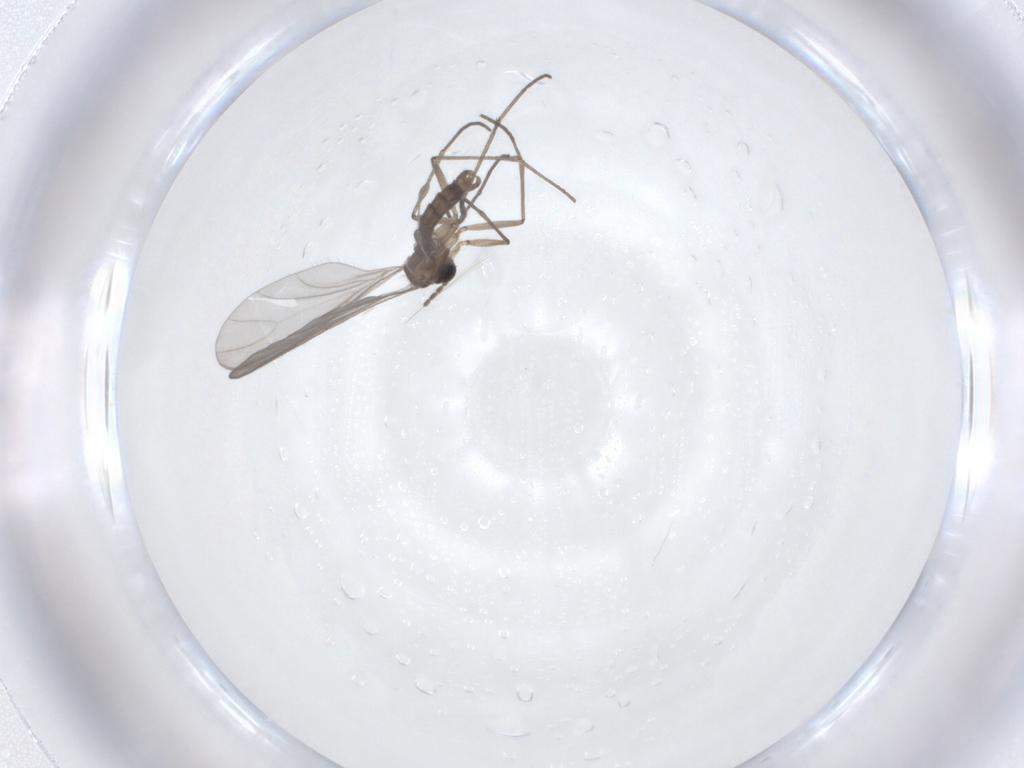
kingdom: Animalia
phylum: Arthropoda
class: Insecta
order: Diptera
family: Sciaridae
